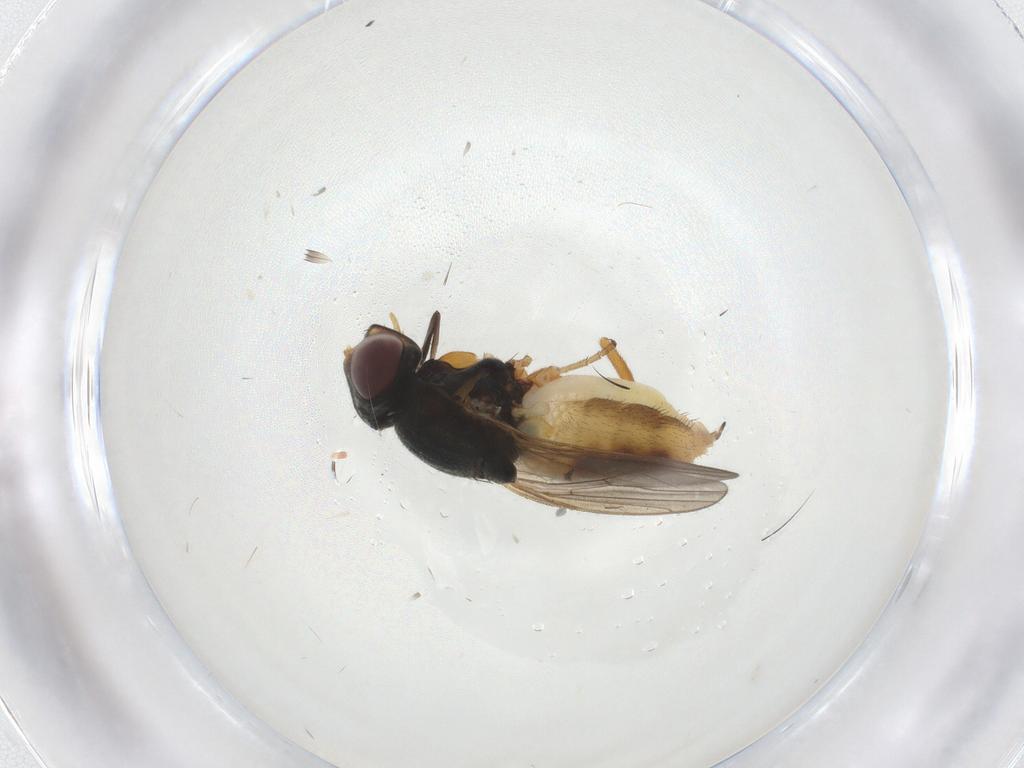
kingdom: Animalia
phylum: Arthropoda
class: Insecta
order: Diptera
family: Chloropidae
